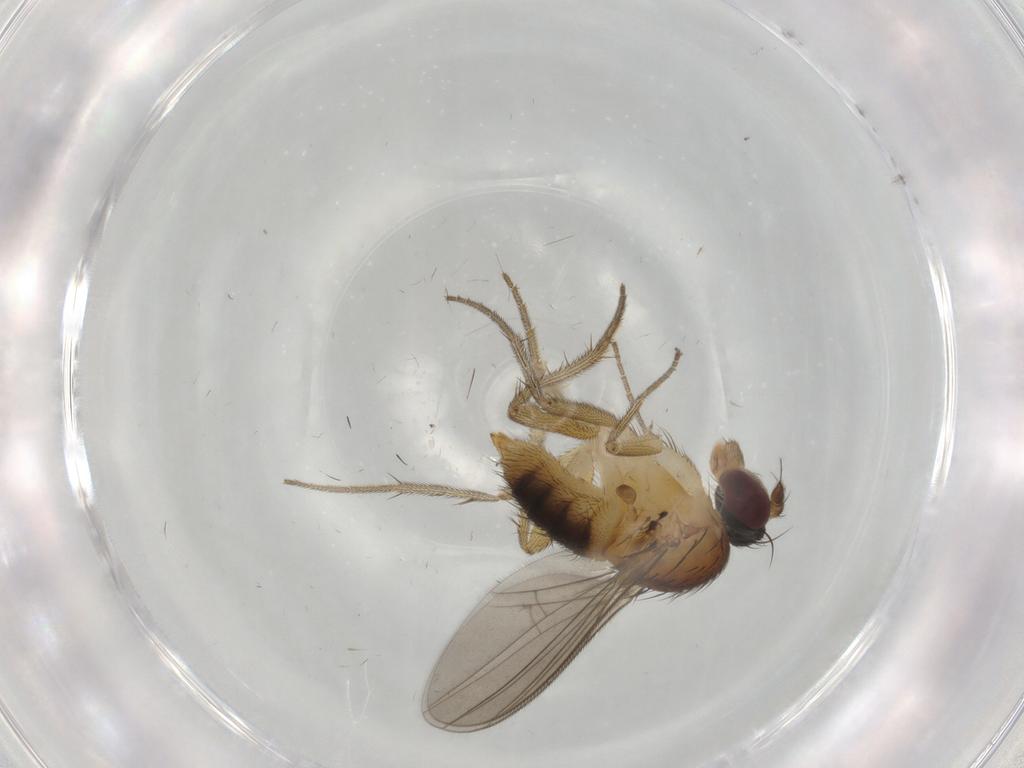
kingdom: Animalia
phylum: Arthropoda
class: Insecta
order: Diptera
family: Dolichopodidae
